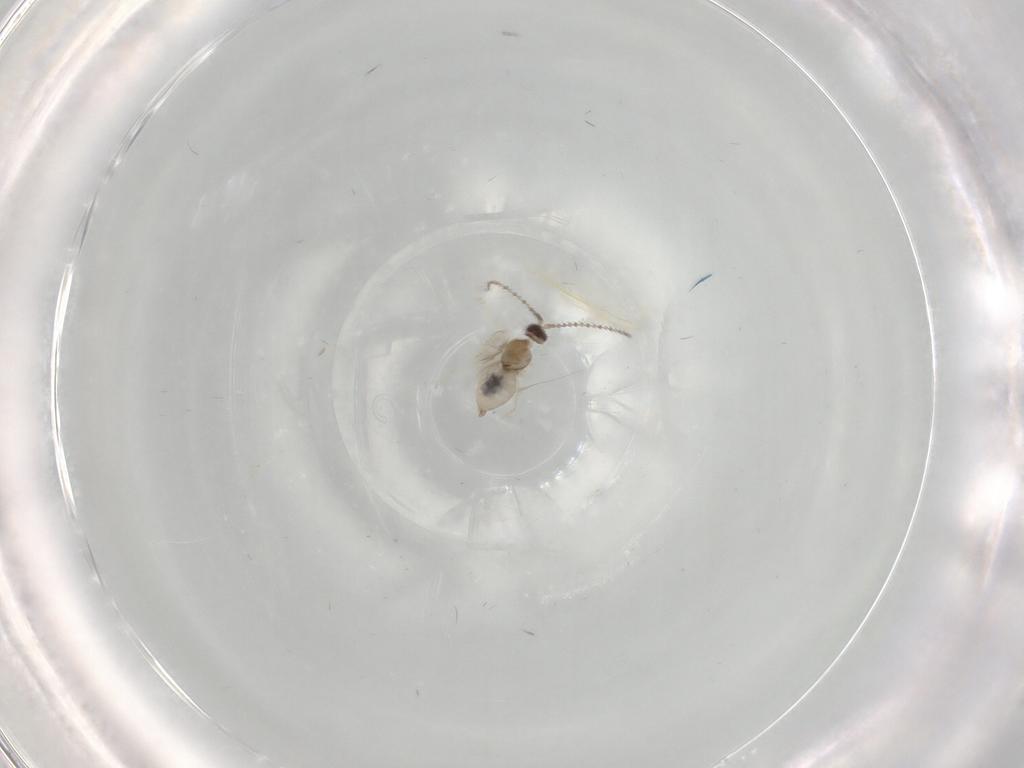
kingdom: Animalia
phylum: Arthropoda
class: Insecta
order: Diptera
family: Cecidomyiidae
